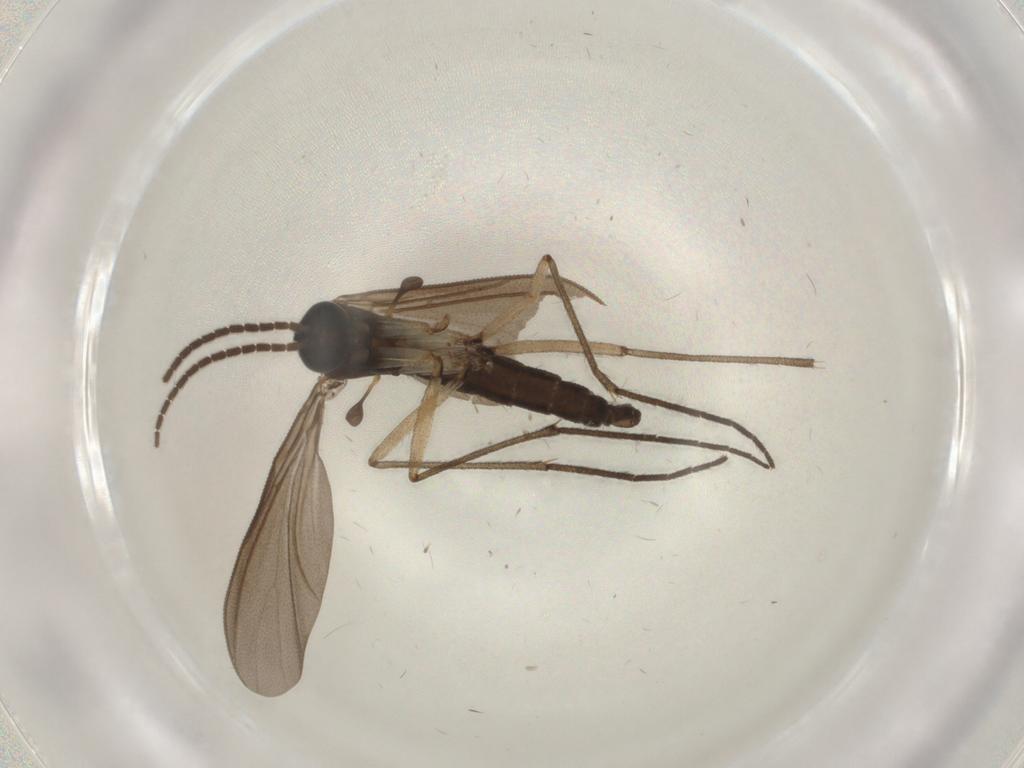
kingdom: Animalia
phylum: Arthropoda
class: Insecta
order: Diptera
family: Sciaridae
